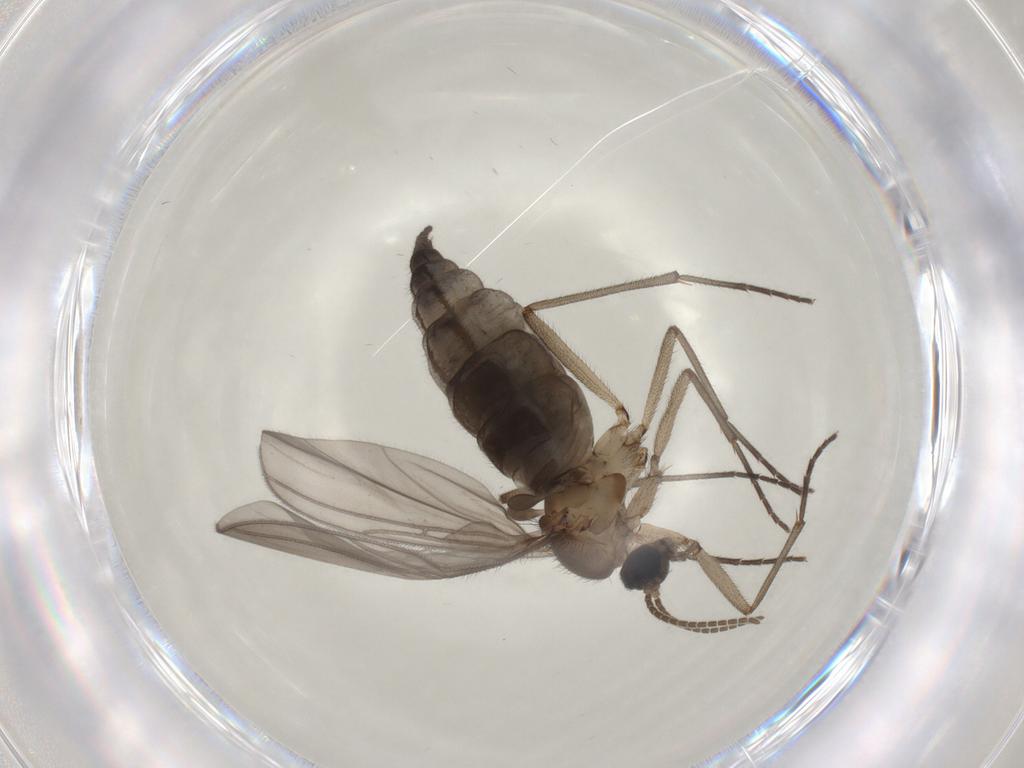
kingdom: Animalia
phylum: Arthropoda
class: Insecta
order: Diptera
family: Sciaridae
